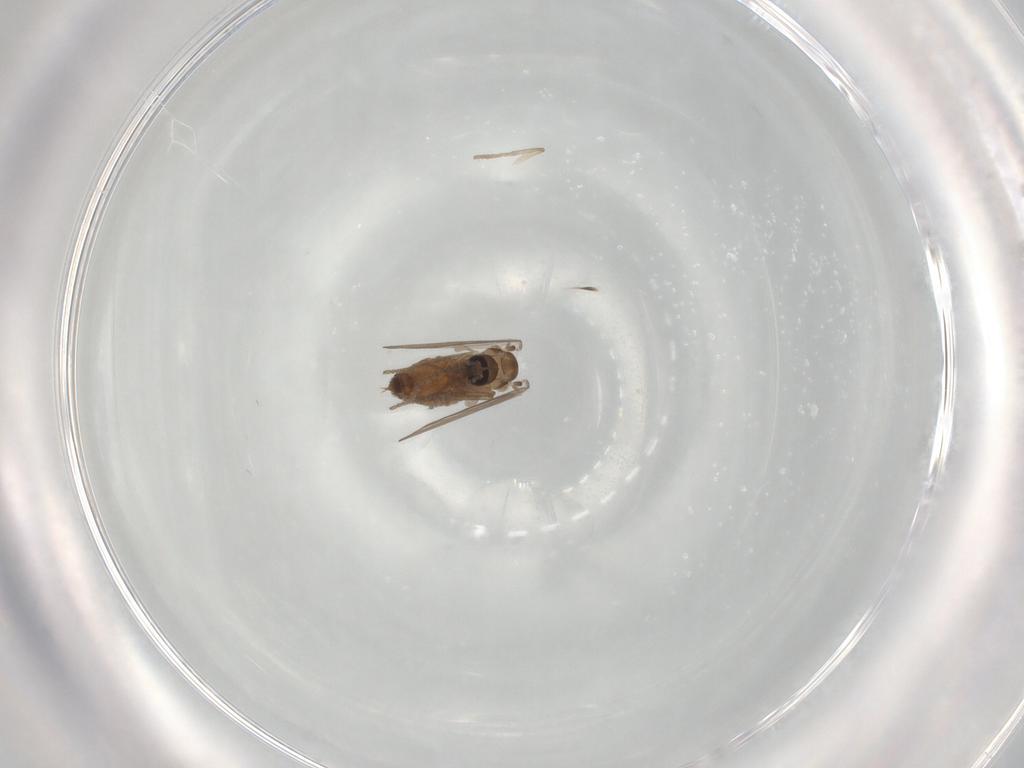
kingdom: Animalia
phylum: Arthropoda
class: Insecta
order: Diptera
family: Psychodidae
